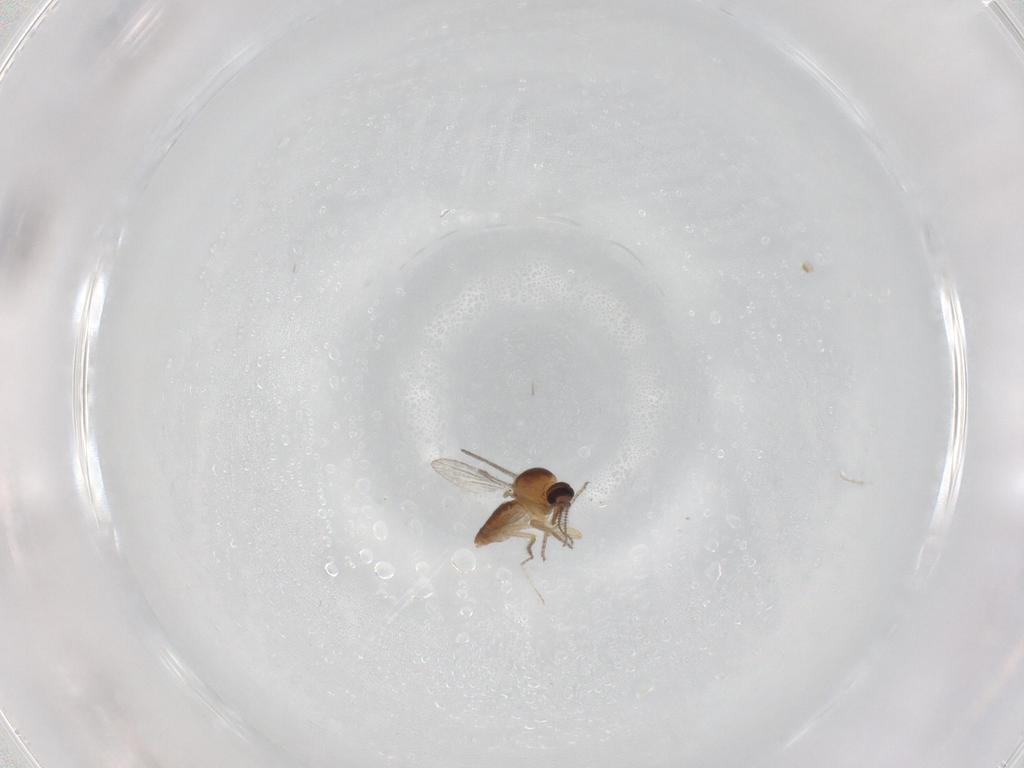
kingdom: Animalia
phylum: Arthropoda
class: Insecta
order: Diptera
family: Ceratopogonidae
